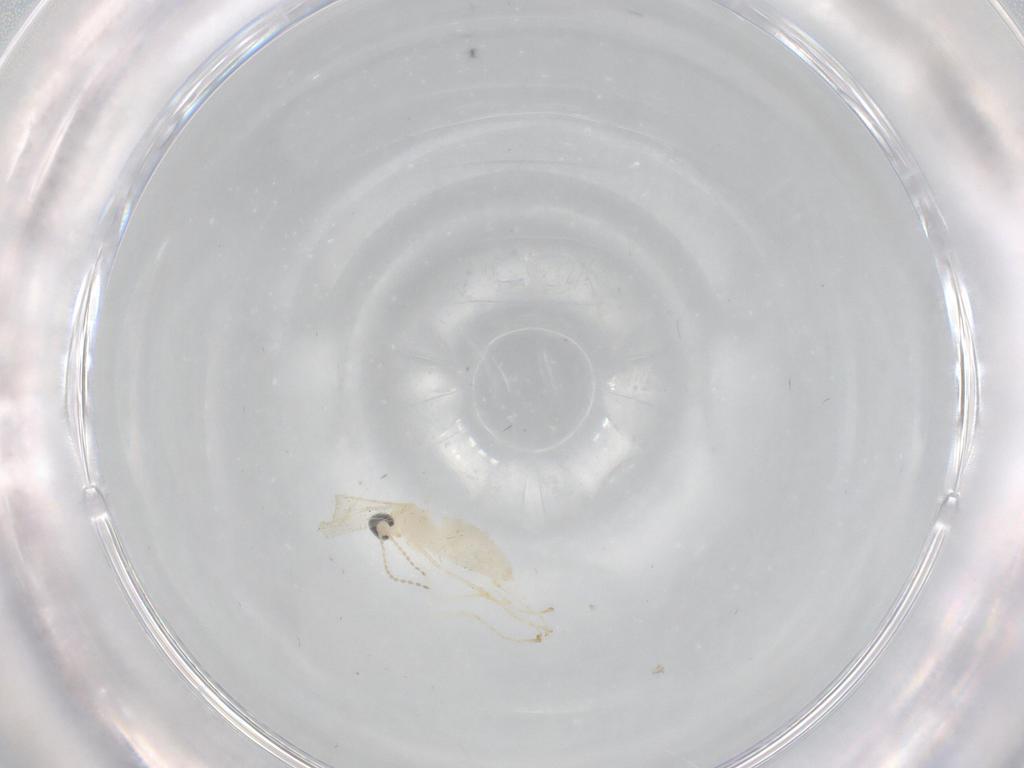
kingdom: Animalia
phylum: Arthropoda
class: Insecta
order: Diptera
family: Cecidomyiidae
